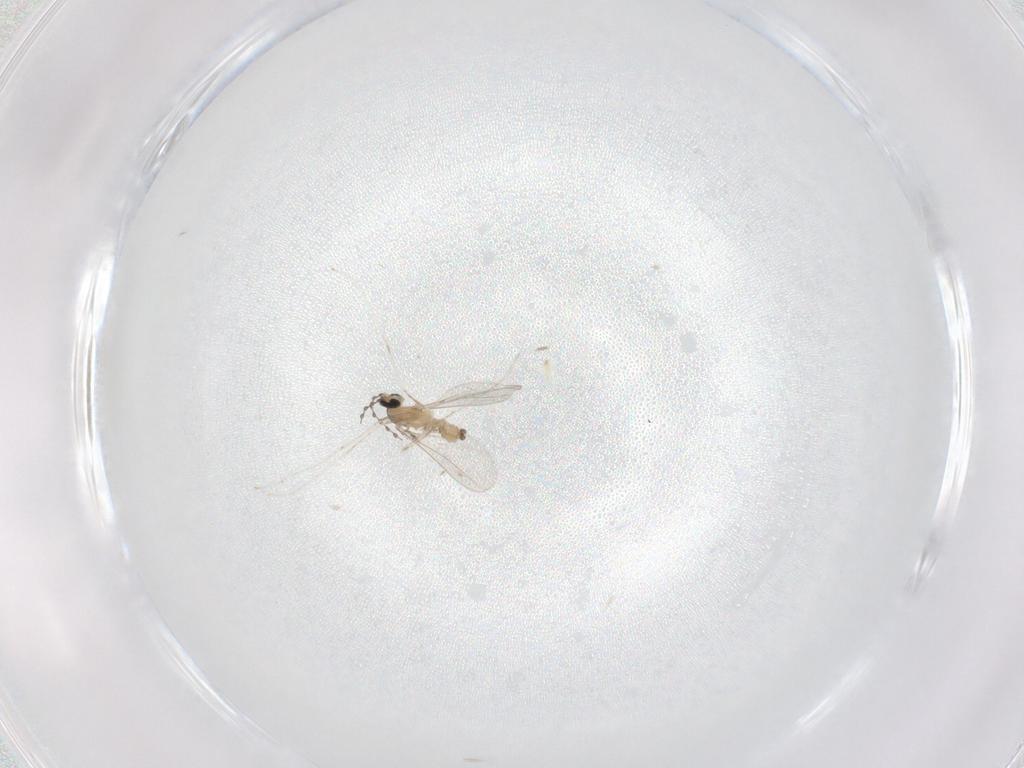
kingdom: Animalia
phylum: Arthropoda
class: Insecta
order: Diptera
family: Cecidomyiidae
